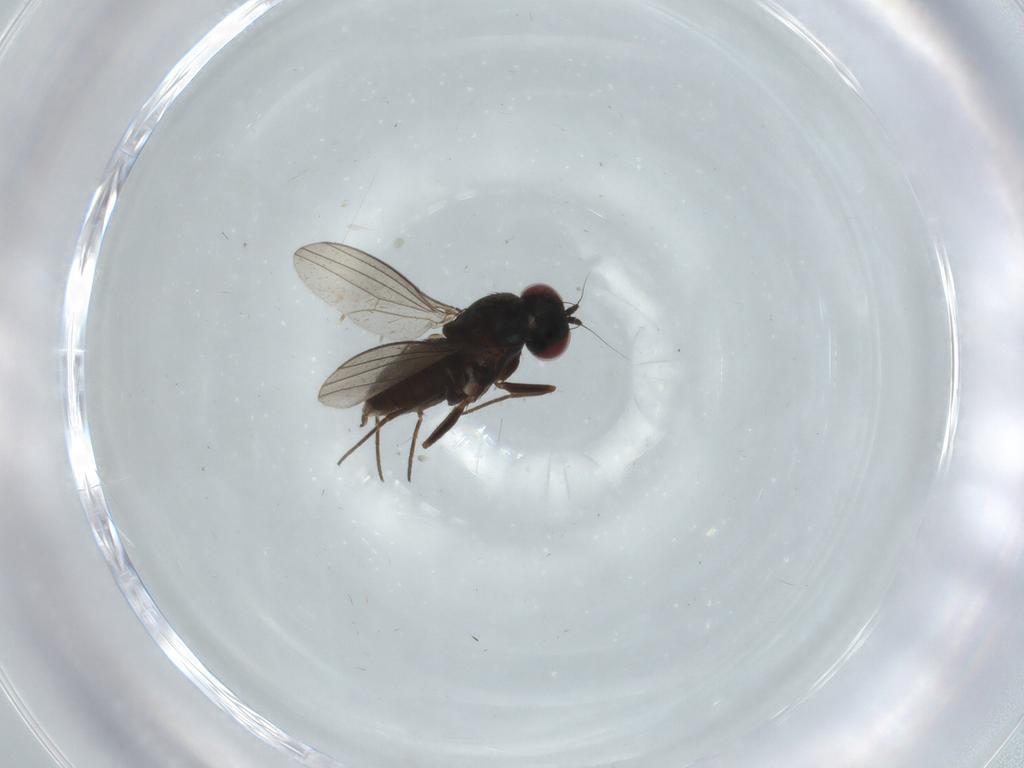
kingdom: Animalia
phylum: Arthropoda
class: Insecta
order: Diptera
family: Dolichopodidae
